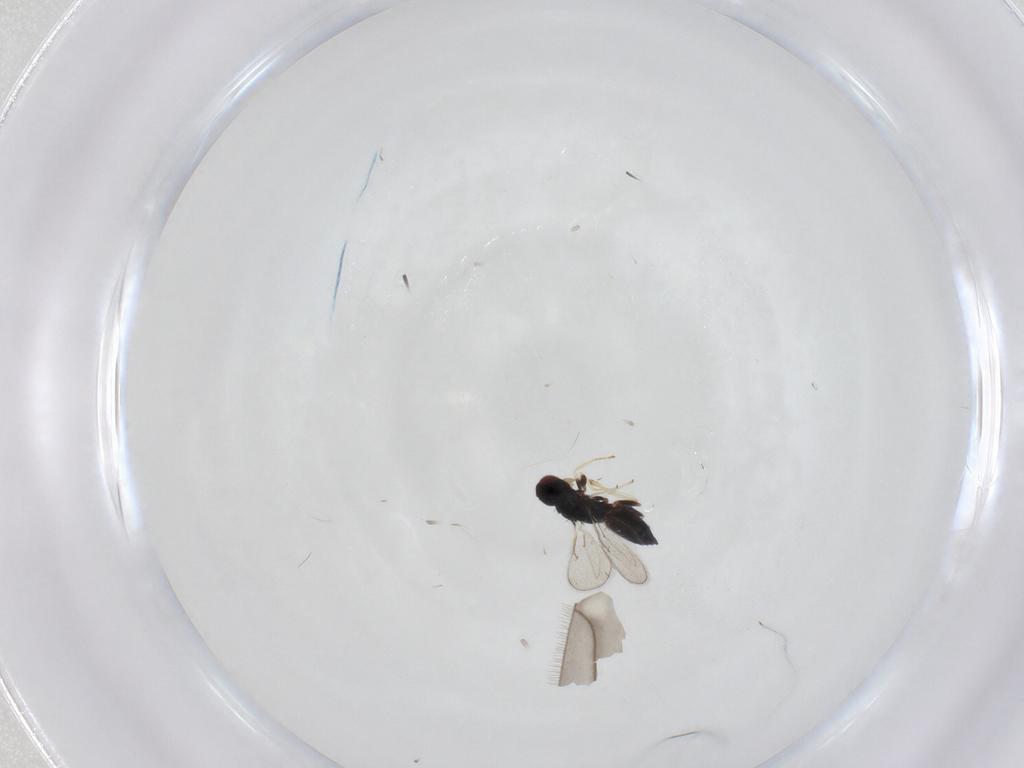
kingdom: Animalia
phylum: Arthropoda
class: Insecta
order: Hymenoptera
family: Eulophidae
